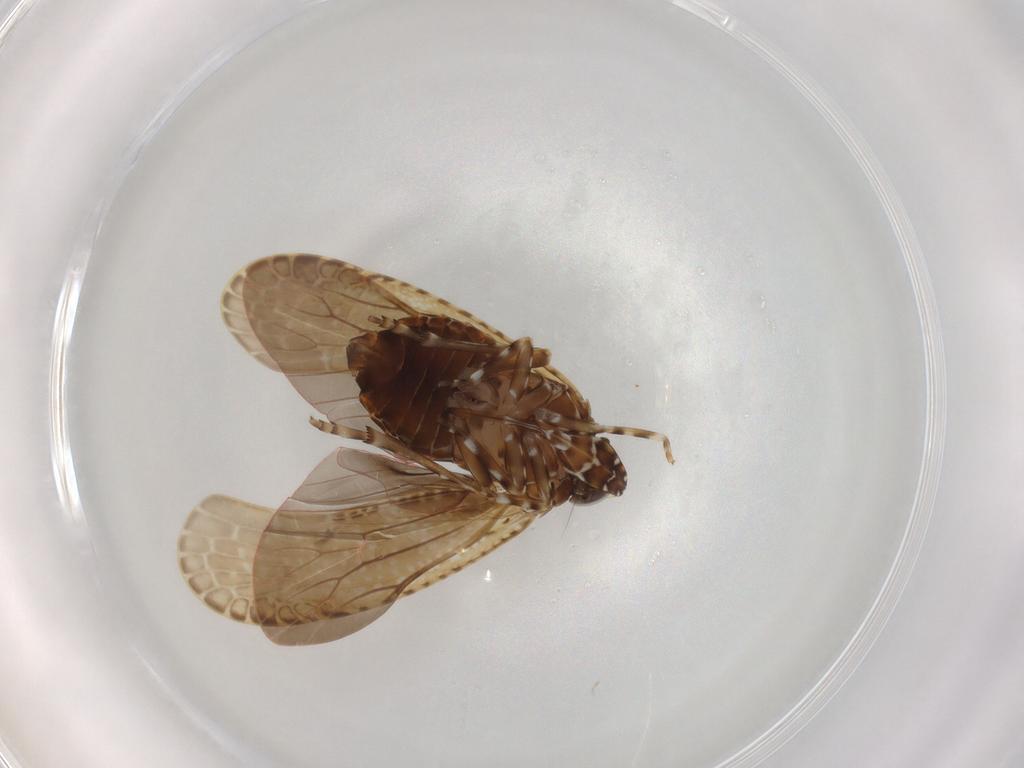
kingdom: Animalia
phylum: Arthropoda
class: Insecta
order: Hemiptera
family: Achilidae
